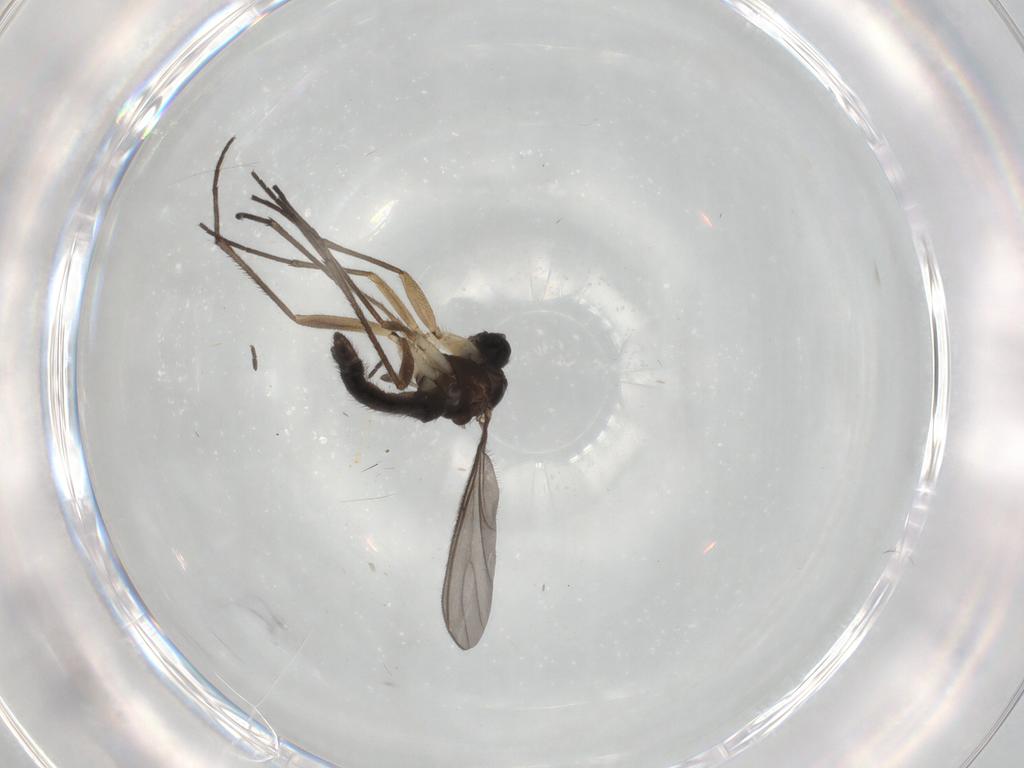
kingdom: Animalia
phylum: Arthropoda
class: Insecta
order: Diptera
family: Sciaridae
